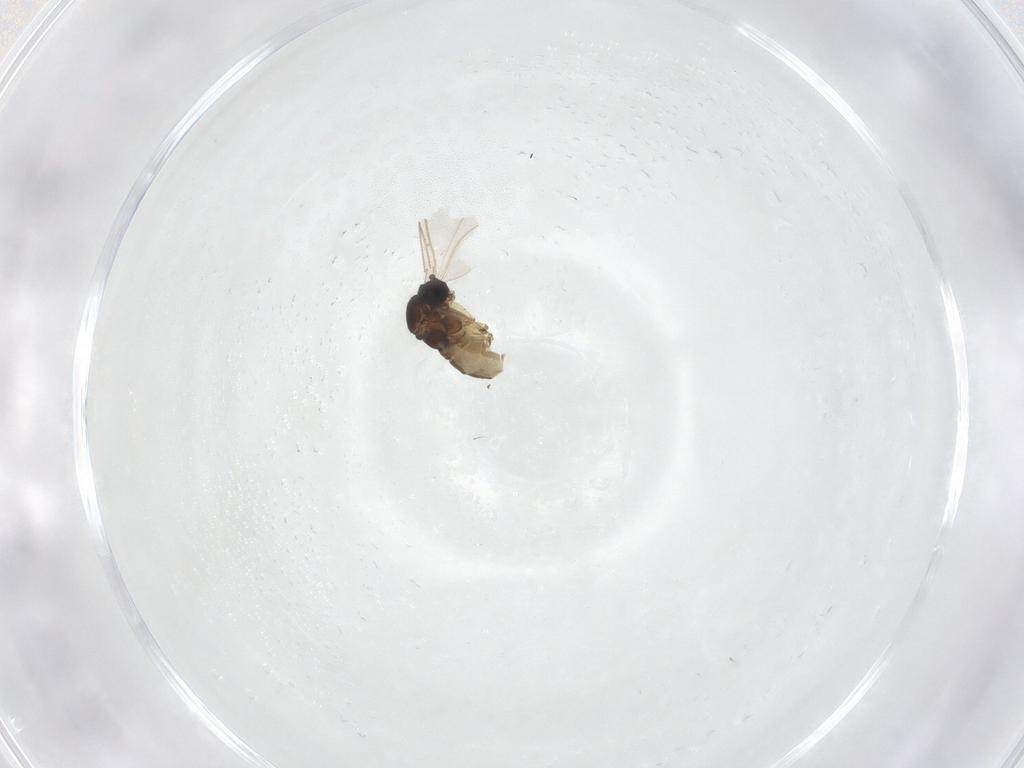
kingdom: Animalia
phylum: Arthropoda
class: Insecta
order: Diptera
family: Sciaridae
